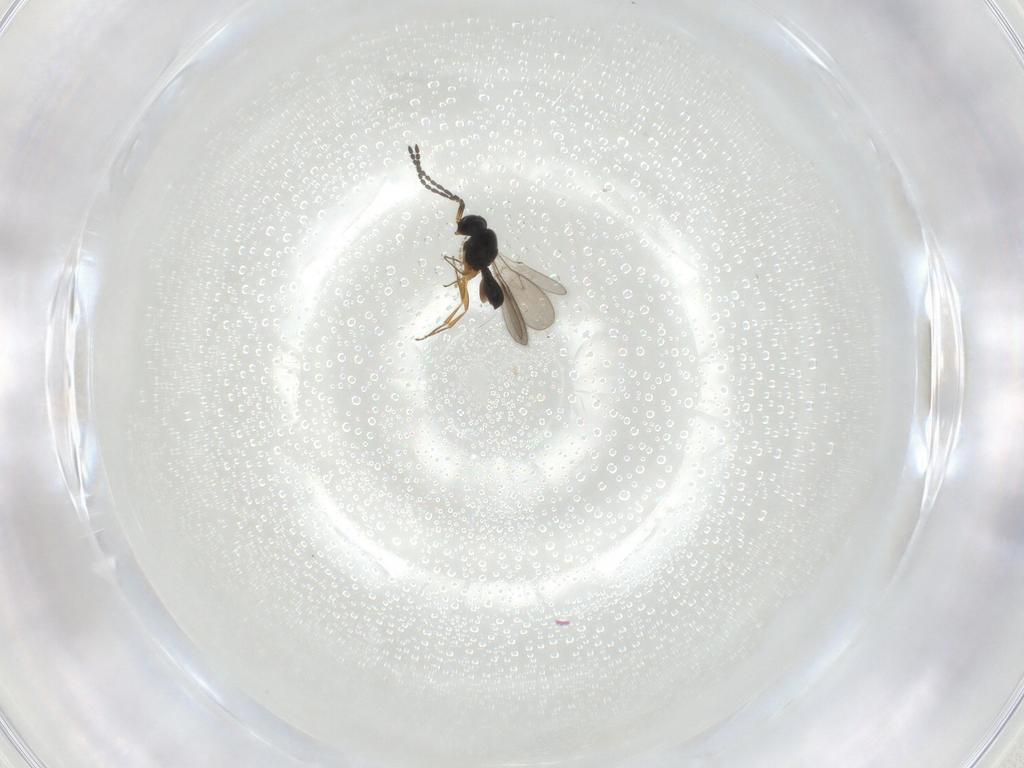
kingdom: Animalia
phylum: Arthropoda
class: Insecta
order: Hymenoptera
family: Scelionidae
